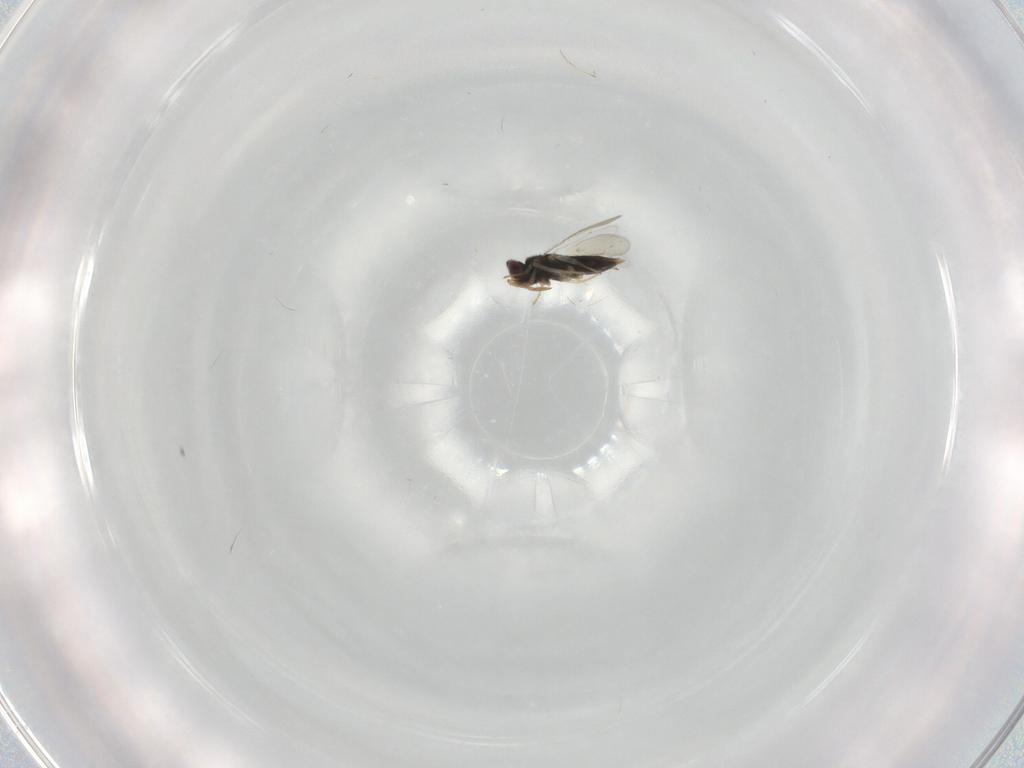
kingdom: Animalia
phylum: Arthropoda
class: Insecta
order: Hymenoptera
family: Aphelinidae
